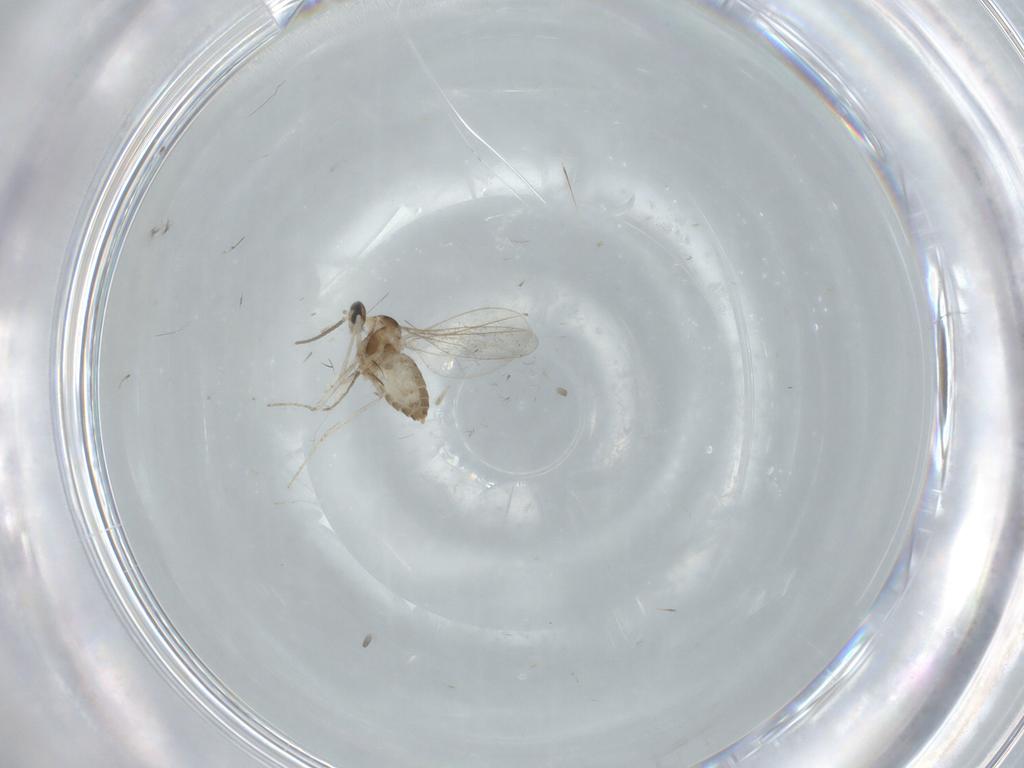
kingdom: Animalia
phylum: Arthropoda
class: Insecta
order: Diptera
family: Cecidomyiidae
